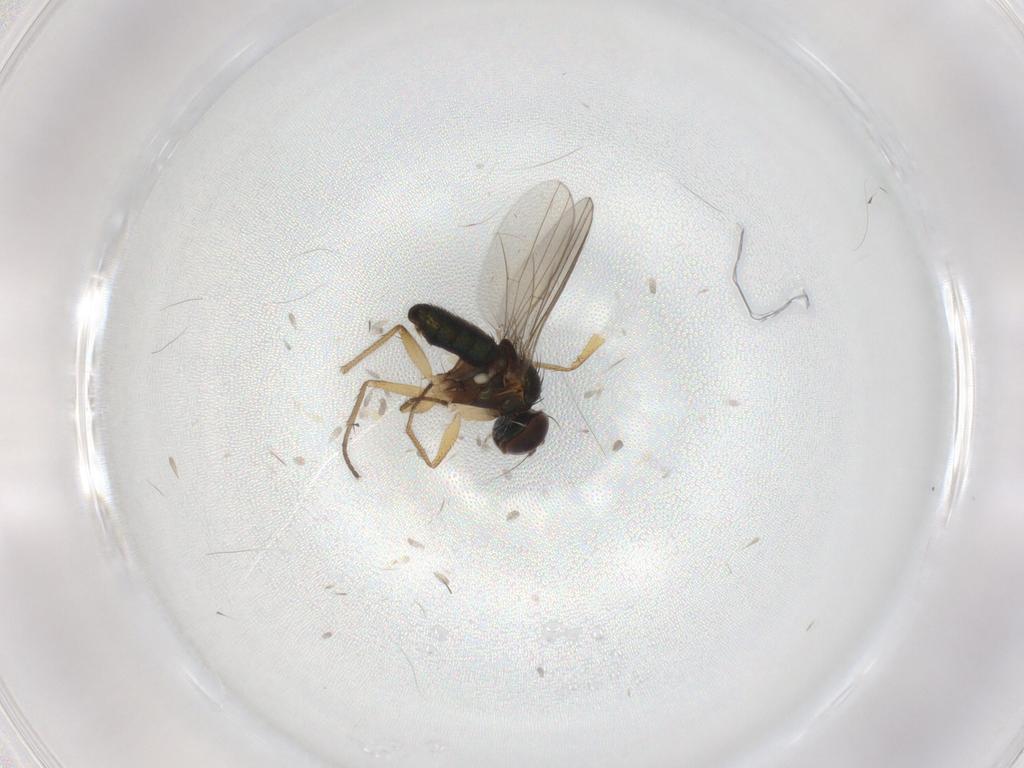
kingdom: Animalia
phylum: Arthropoda
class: Insecta
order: Diptera
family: Psychodidae
